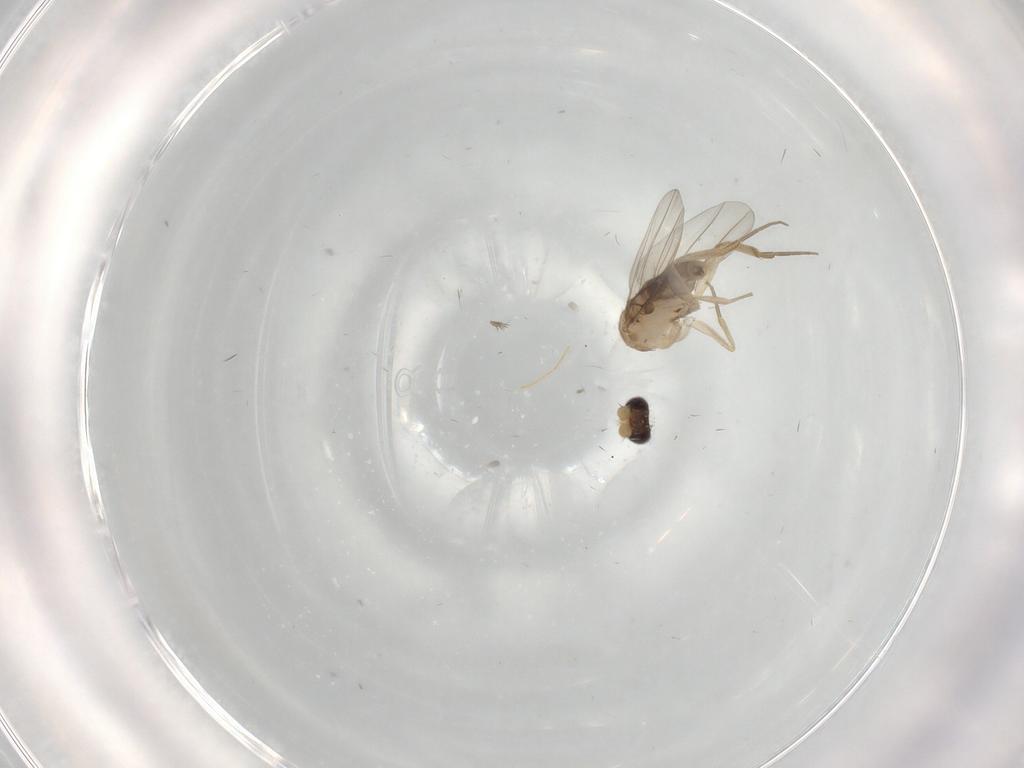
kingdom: Animalia
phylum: Arthropoda
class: Insecta
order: Diptera
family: Phoridae
